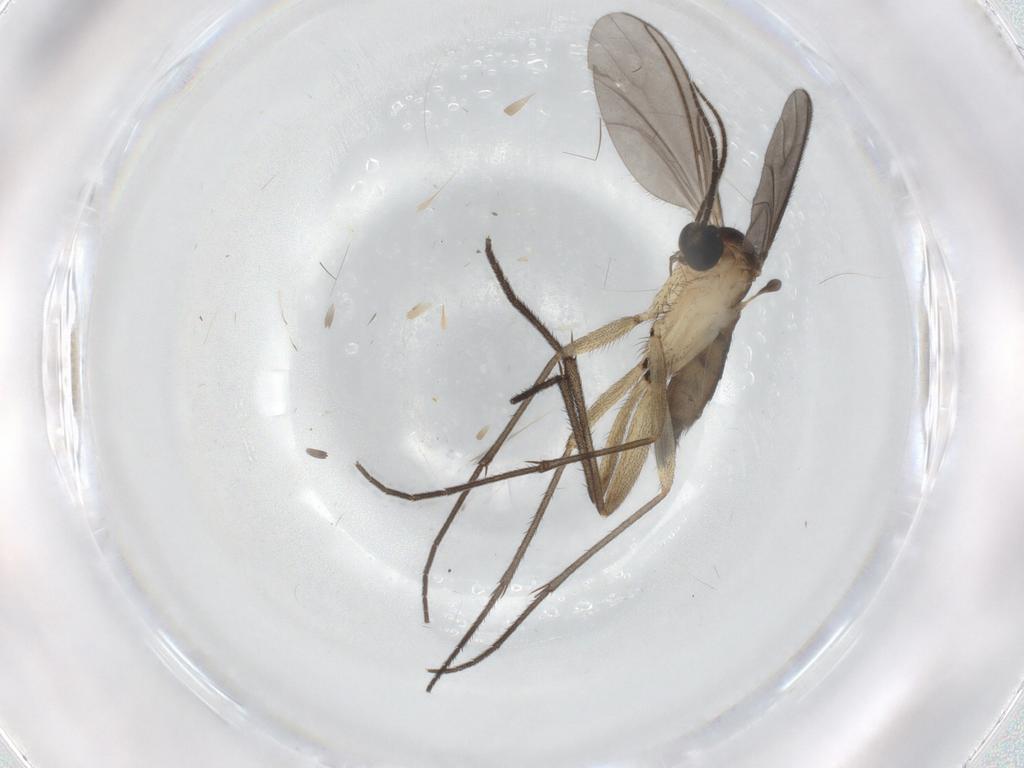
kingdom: Animalia
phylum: Arthropoda
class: Insecta
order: Diptera
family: Sciaridae
